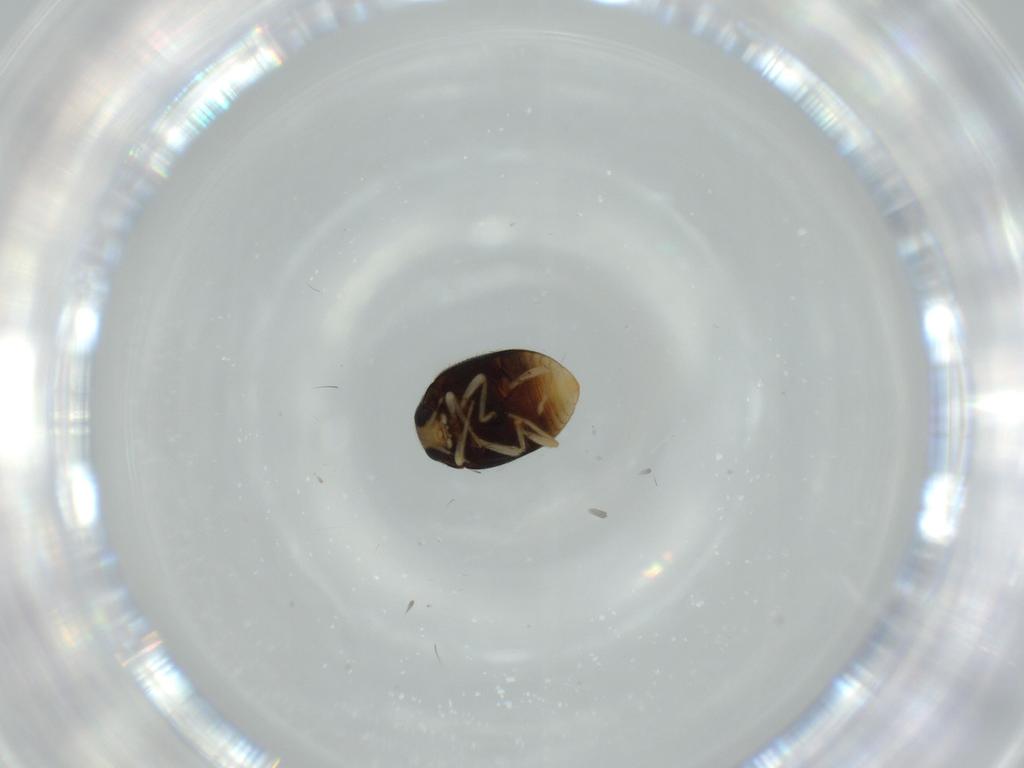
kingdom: Animalia
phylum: Arthropoda
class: Insecta
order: Coleoptera
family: Coccinellidae
